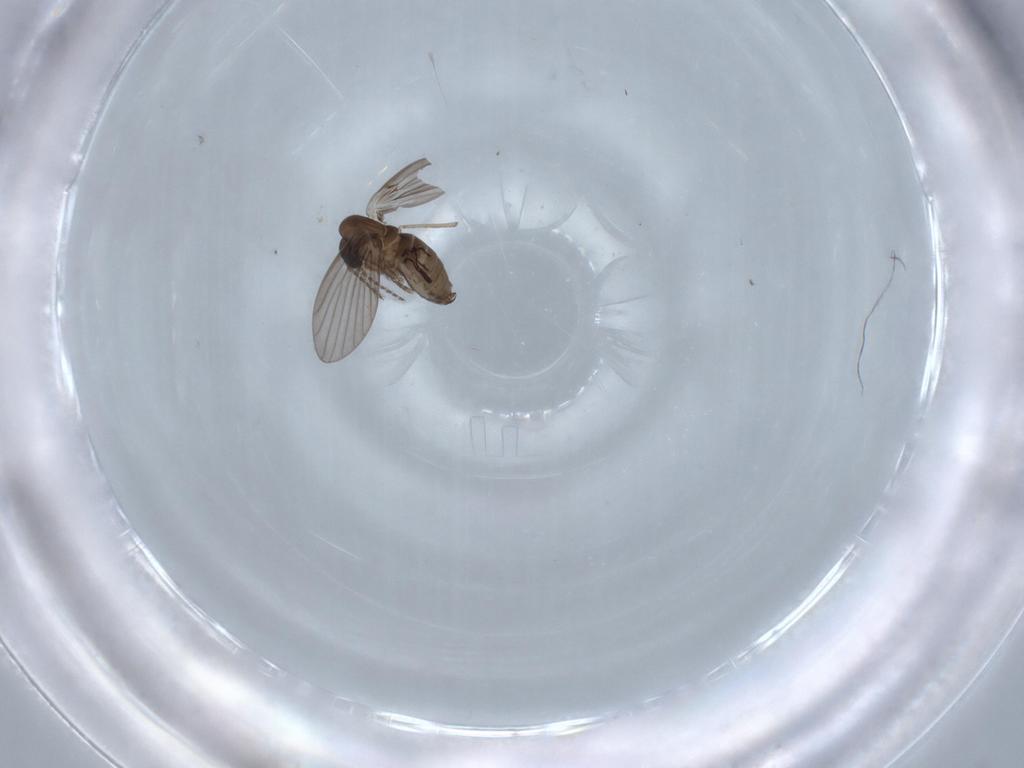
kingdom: Animalia
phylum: Arthropoda
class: Insecta
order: Diptera
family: Psychodidae
